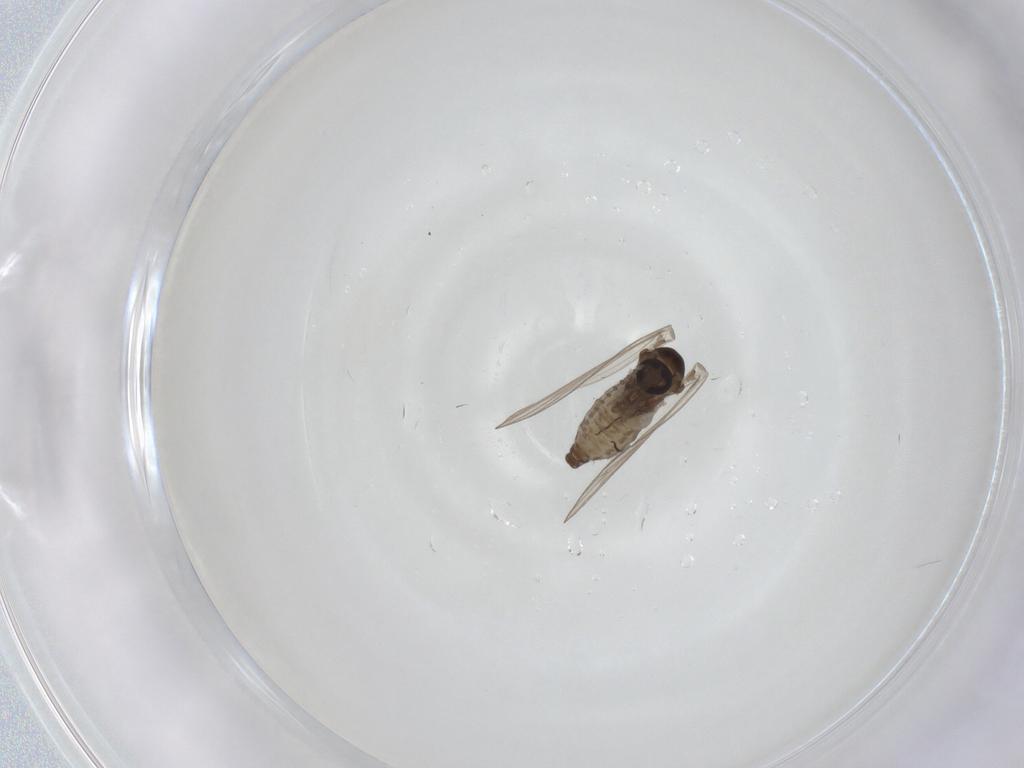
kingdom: Animalia
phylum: Arthropoda
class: Insecta
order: Diptera
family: Psychodidae
